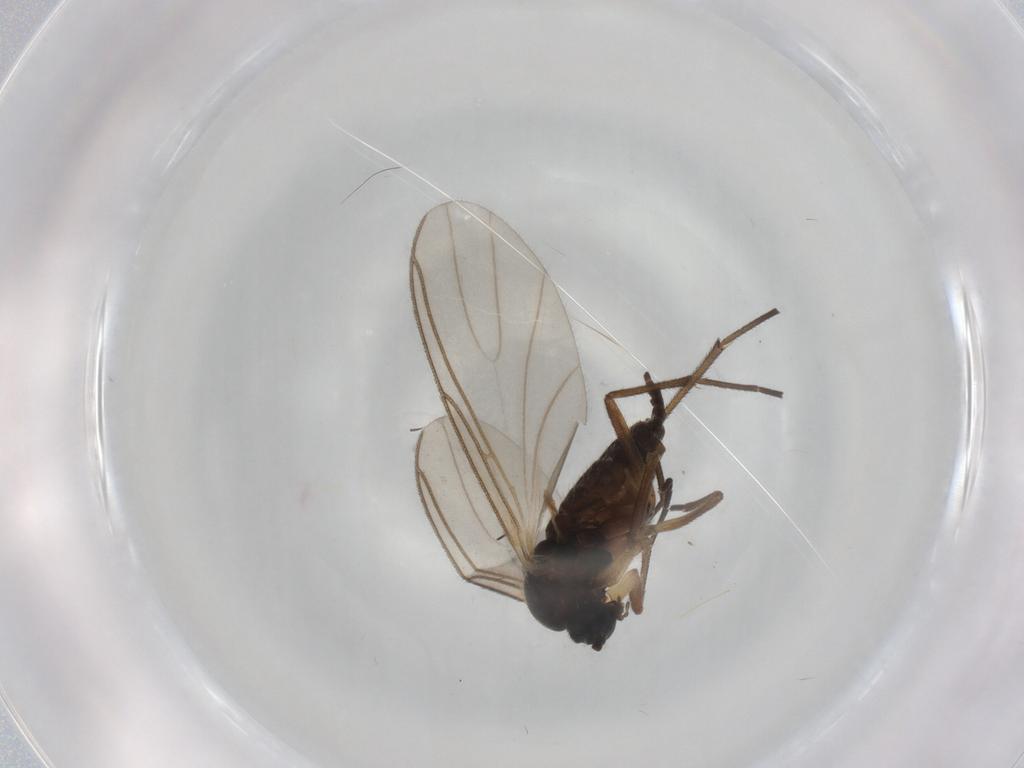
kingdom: Animalia
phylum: Arthropoda
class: Insecta
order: Diptera
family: Sciaridae
